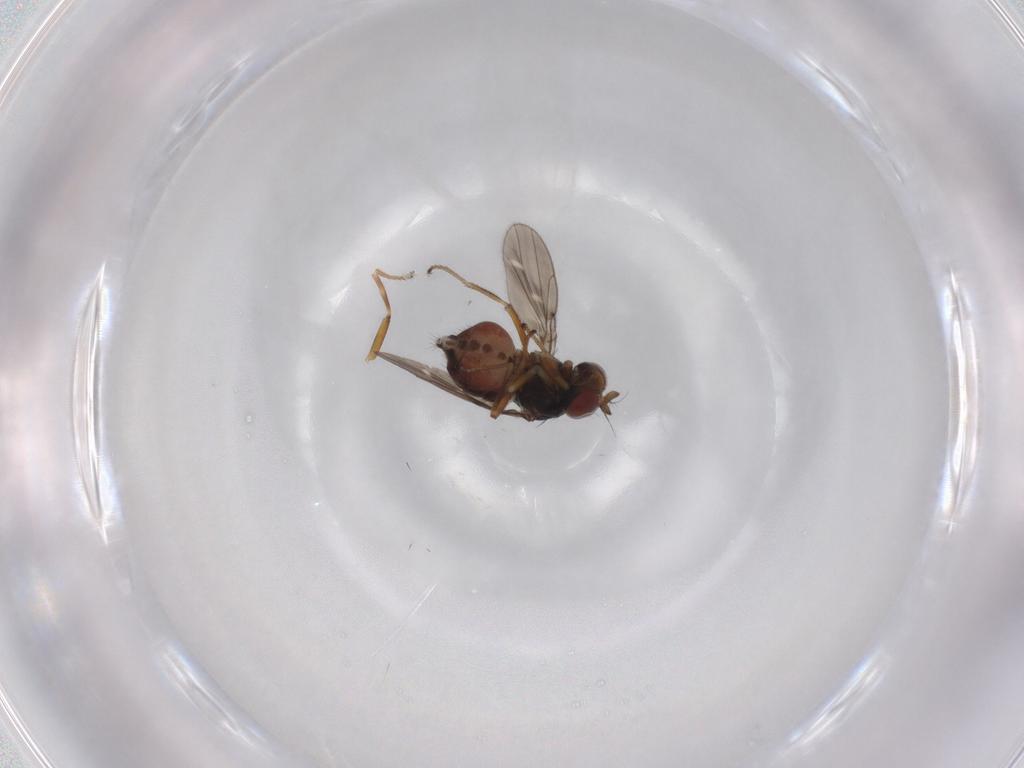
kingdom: Animalia
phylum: Arthropoda
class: Insecta
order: Diptera
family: Ephydridae
